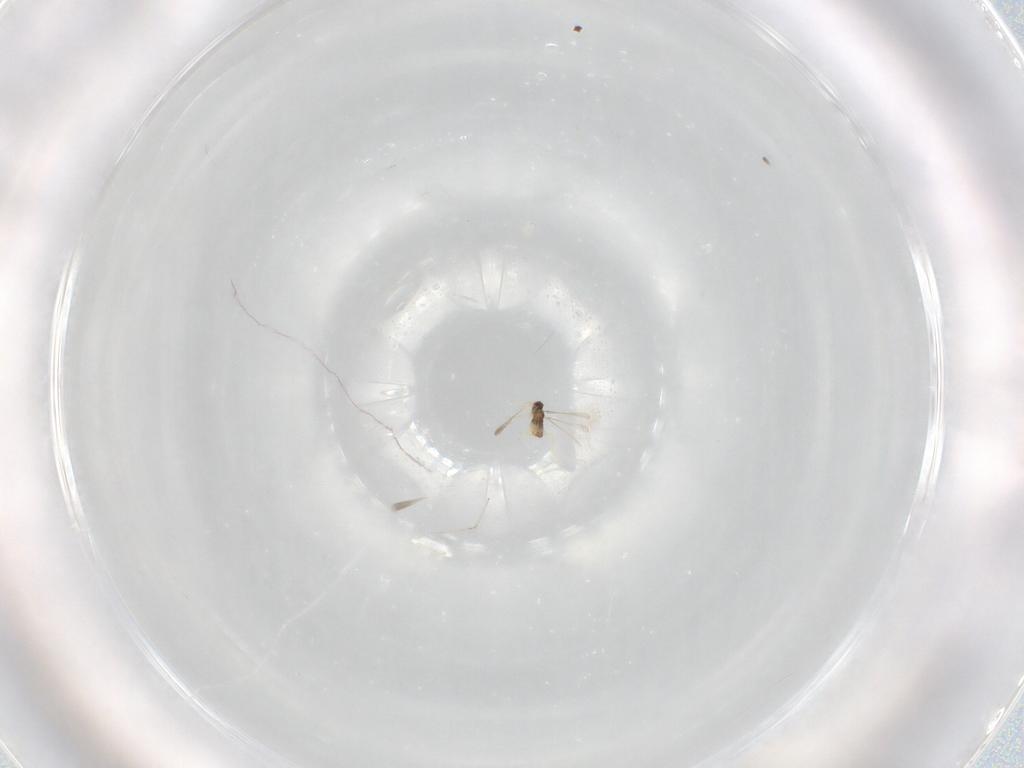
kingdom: Animalia
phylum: Arthropoda
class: Insecta
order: Hymenoptera
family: Mymaridae
